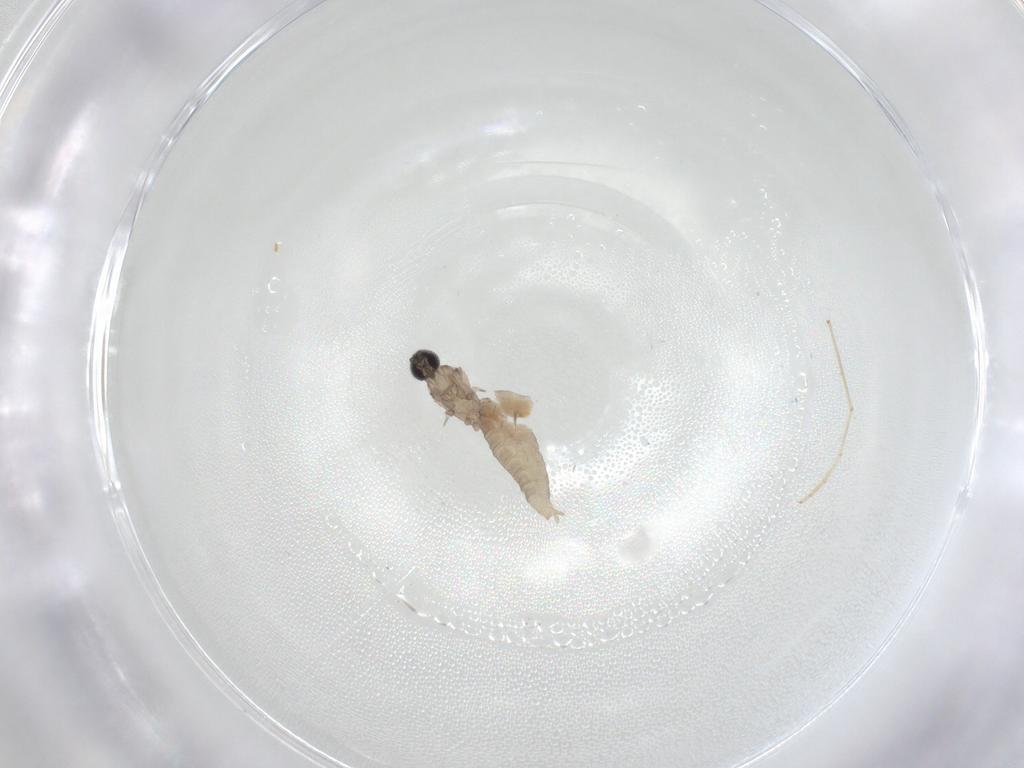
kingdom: Animalia
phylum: Arthropoda
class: Insecta
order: Diptera
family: Cecidomyiidae
